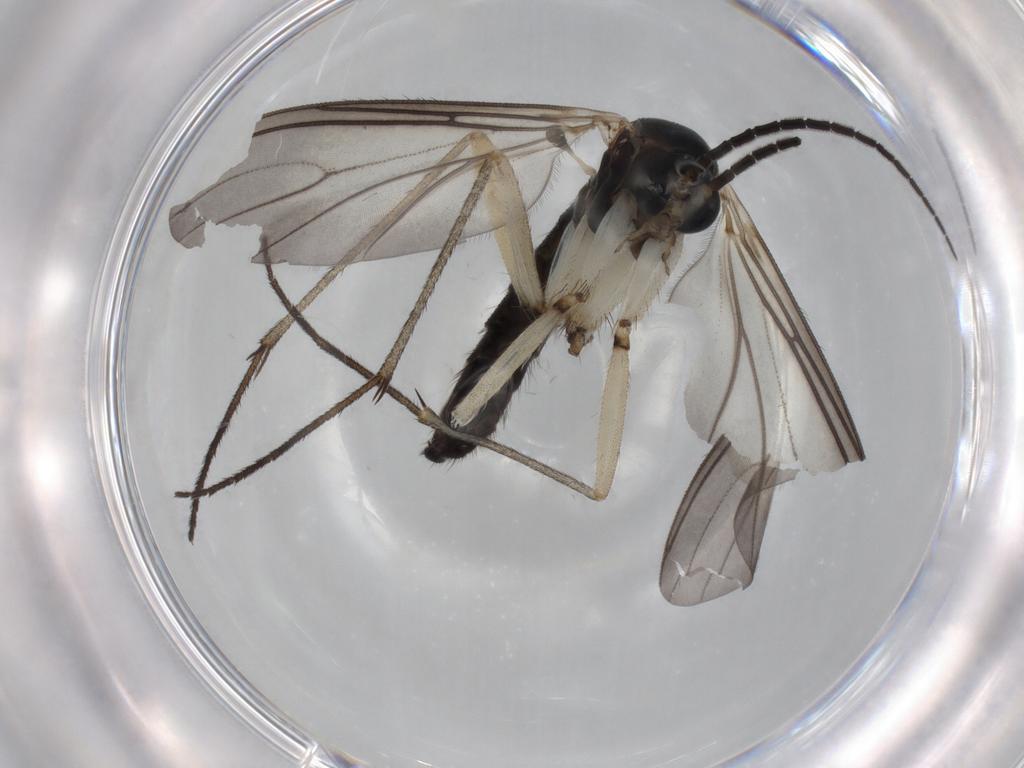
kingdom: Animalia
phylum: Arthropoda
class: Insecta
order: Diptera
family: Sciaridae
